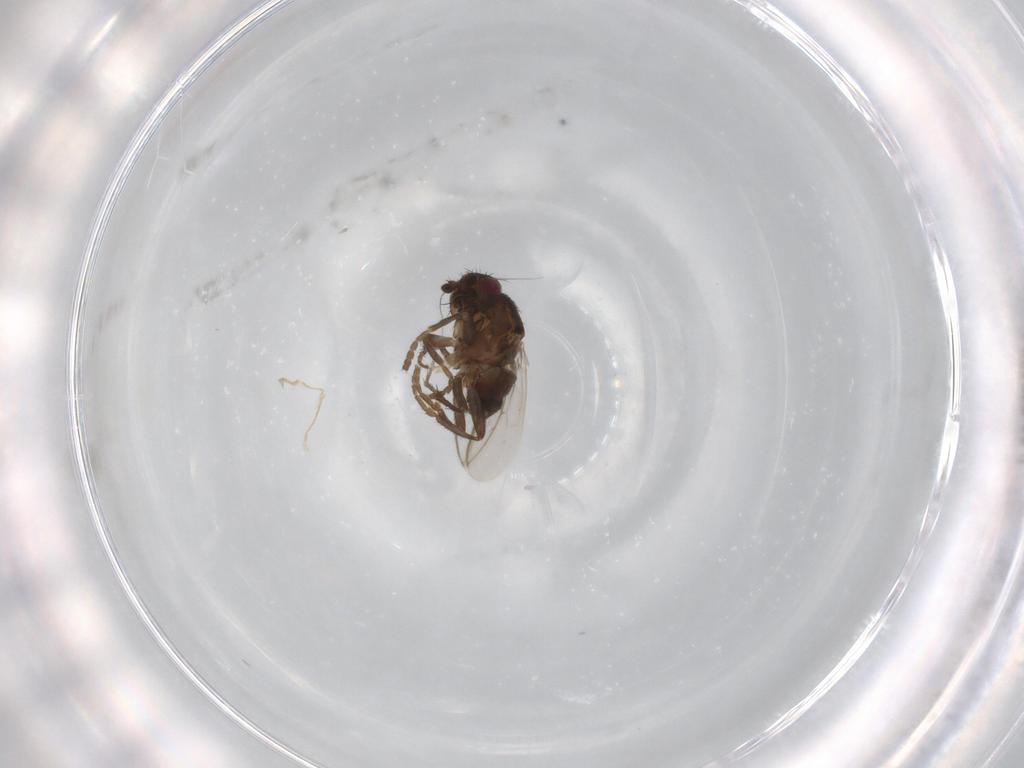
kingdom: Animalia
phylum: Arthropoda
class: Insecta
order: Diptera
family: Sphaeroceridae
